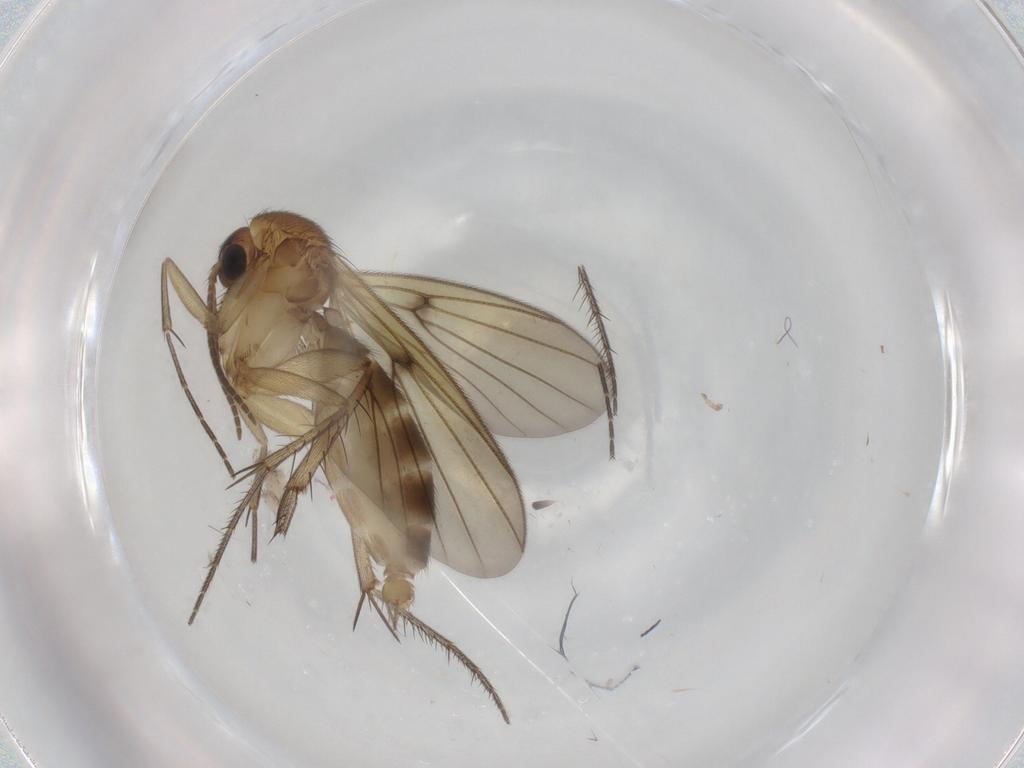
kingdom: Animalia
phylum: Arthropoda
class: Insecta
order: Diptera
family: Mycetophilidae
